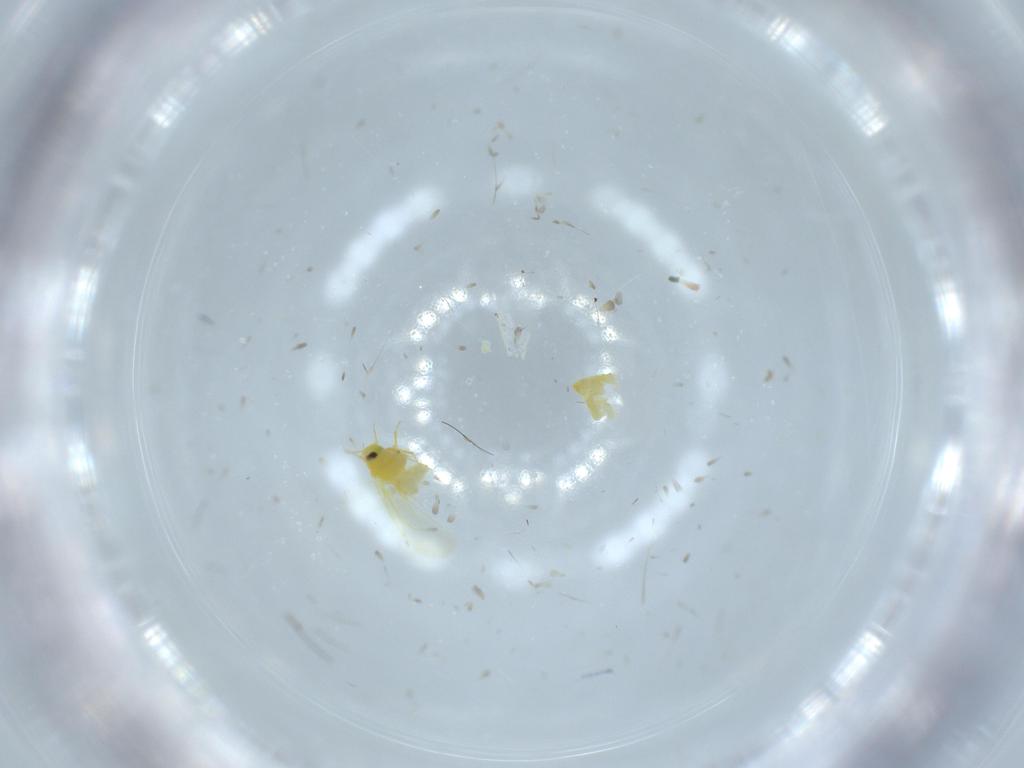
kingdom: Animalia
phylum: Arthropoda
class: Insecta
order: Hemiptera
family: Aleyrodidae
